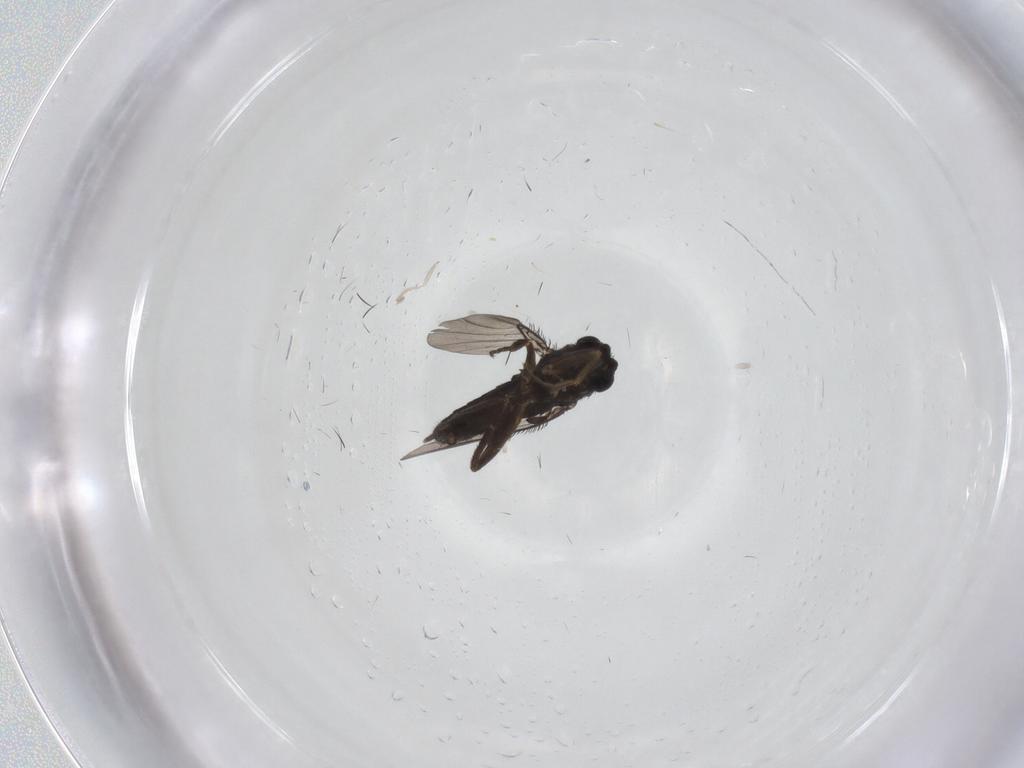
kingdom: Animalia
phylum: Arthropoda
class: Insecta
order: Diptera
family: Phoridae
